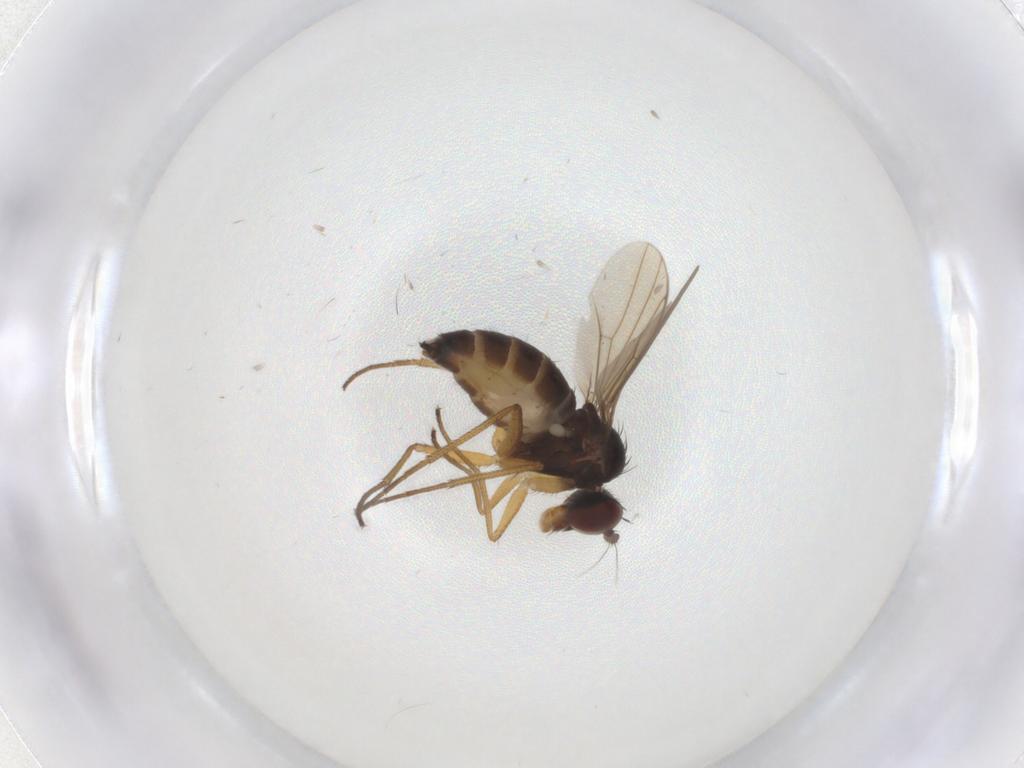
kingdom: Animalia
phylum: Arthropoda
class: Insecta
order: Diptera
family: Dolichopodidae
